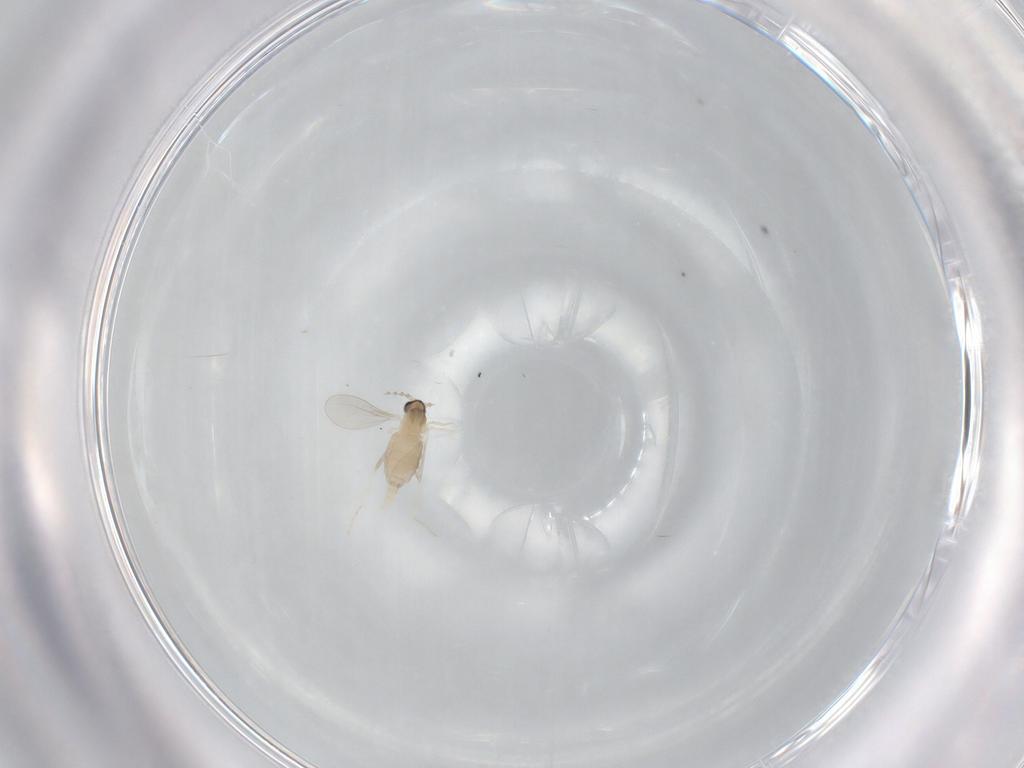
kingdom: Animalia
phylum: Arthropoda
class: Insecta
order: Diptera
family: Cecidomyiidae
